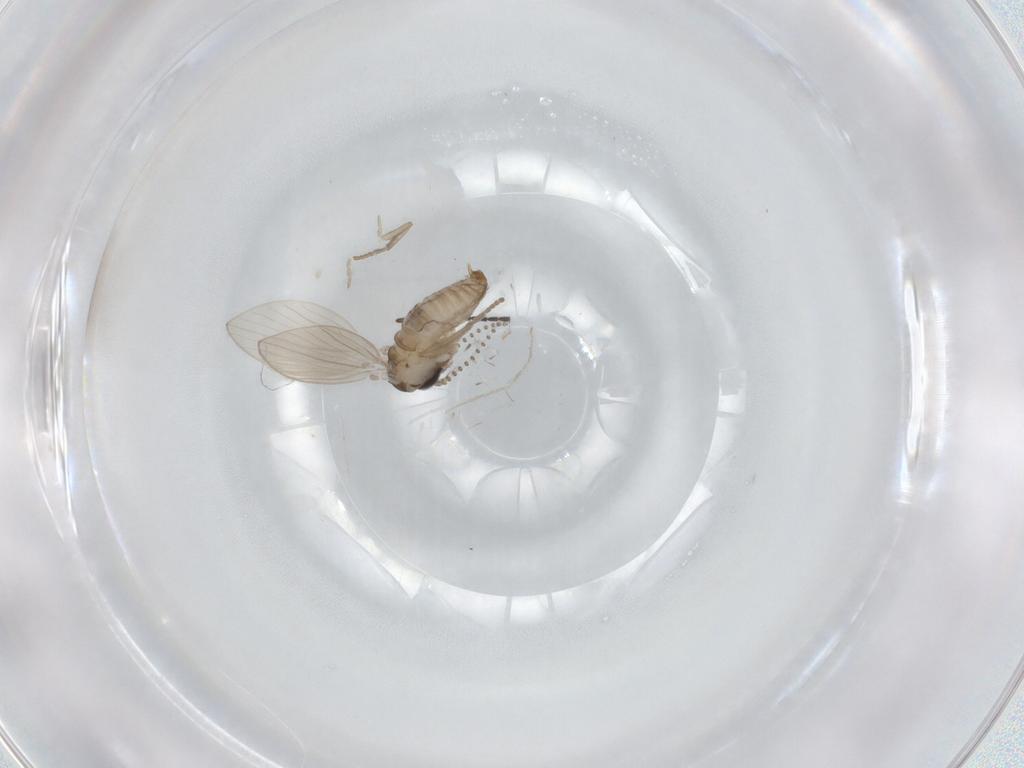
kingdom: Animalia
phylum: Arthropoda
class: Insecta
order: Diptera
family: Psychodidae
